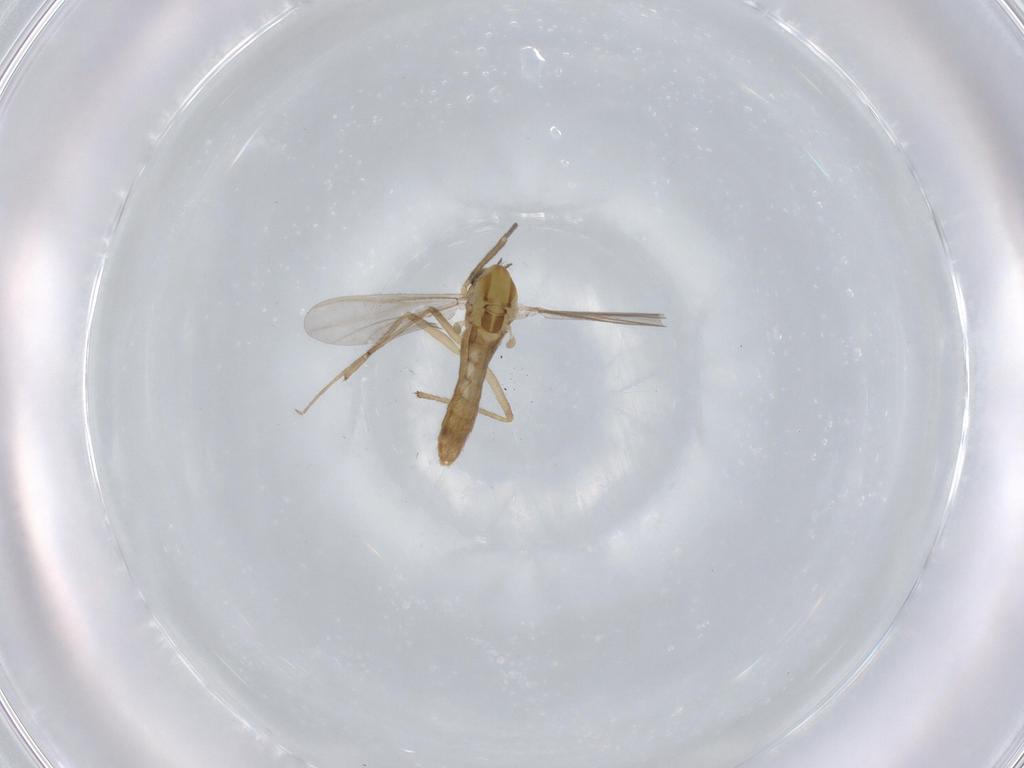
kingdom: Animalia
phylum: Arthropoda
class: Insecta
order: Diptera
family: Chironomidae
